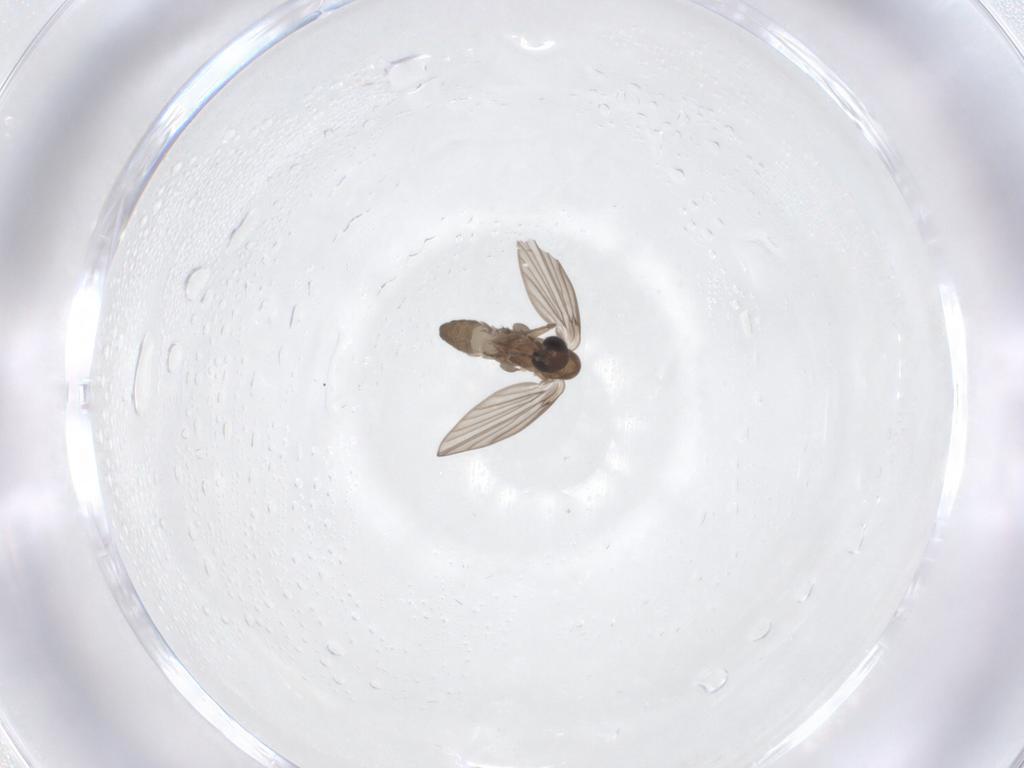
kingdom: Animalia
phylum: Arthropoda
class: Insecta
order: Diptera
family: Psychodidae
